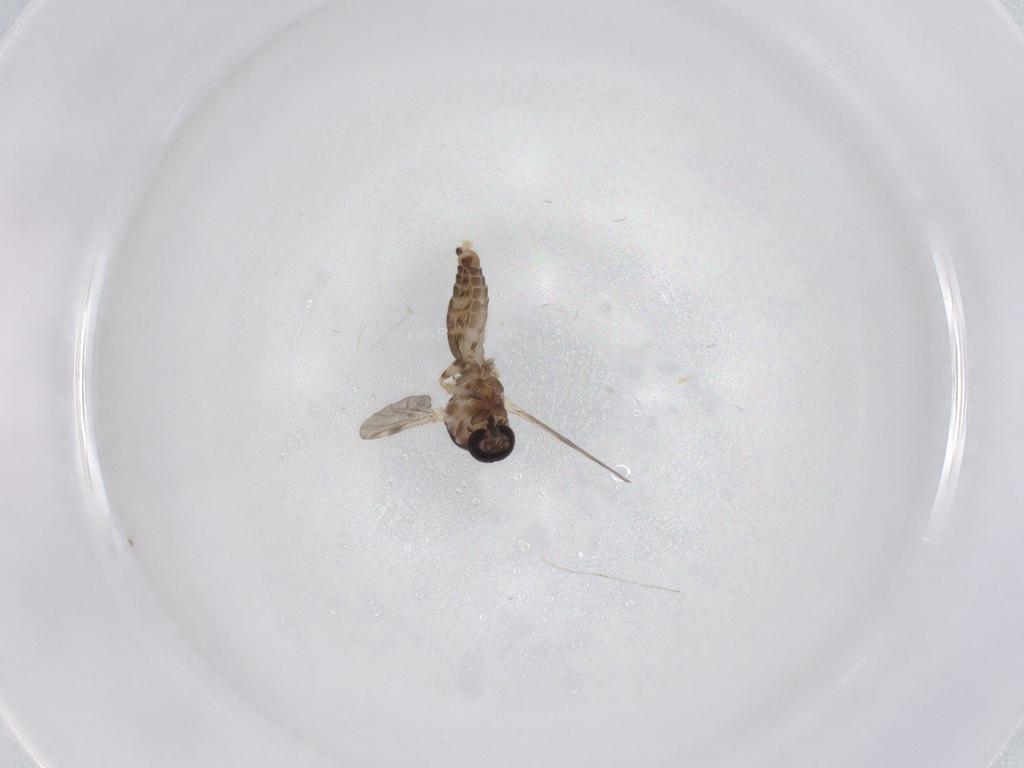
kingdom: Animalia
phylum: Arthropoda
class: Insecta
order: Diptera
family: Ceratopogonidae
